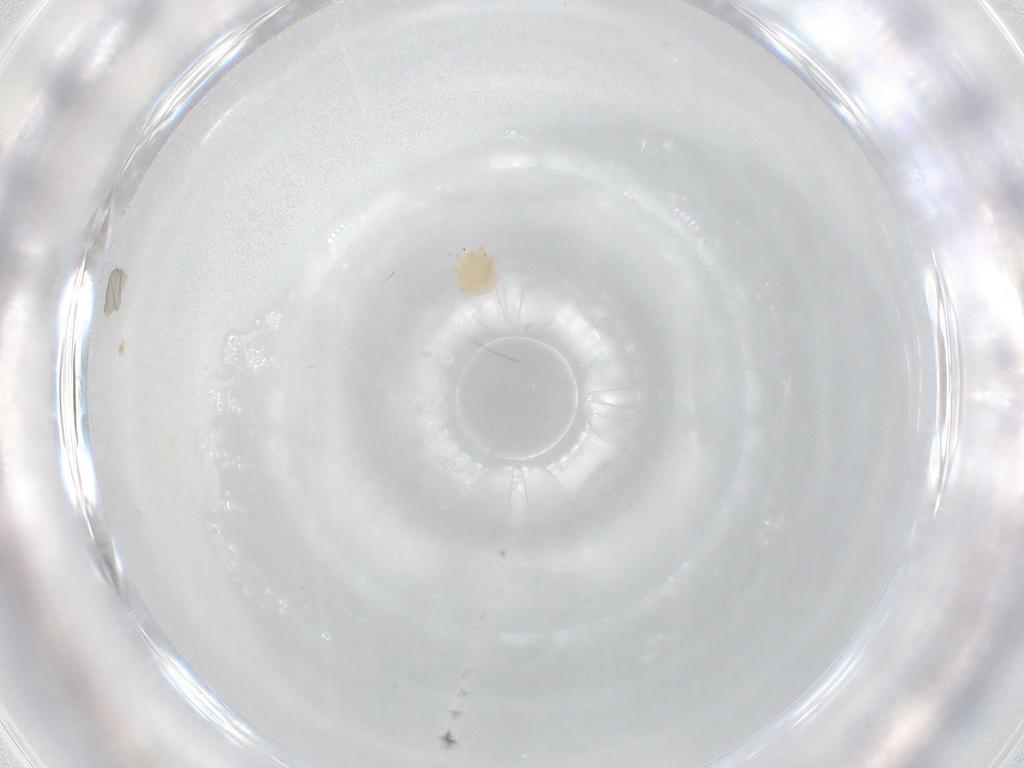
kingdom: Animalia
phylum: Arthropoda
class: Arachnida
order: Trombidiformes
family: Sperchontidae
